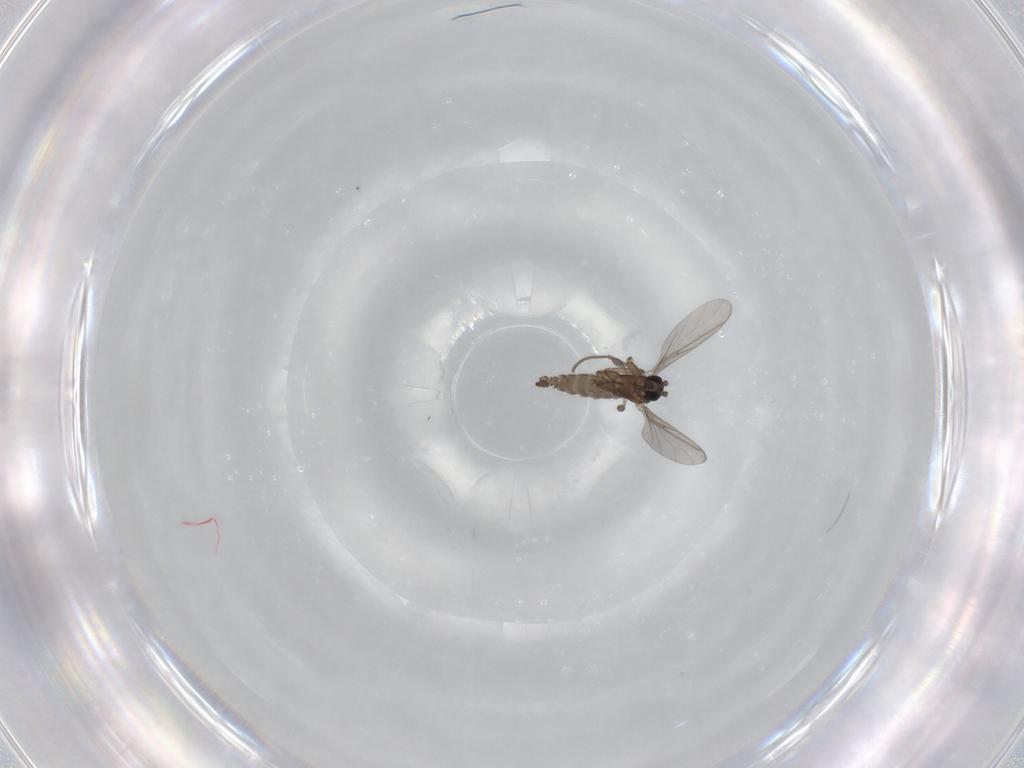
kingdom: Animalia
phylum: Arthropoda
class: Insecta
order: Diptera
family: Sciaridae
